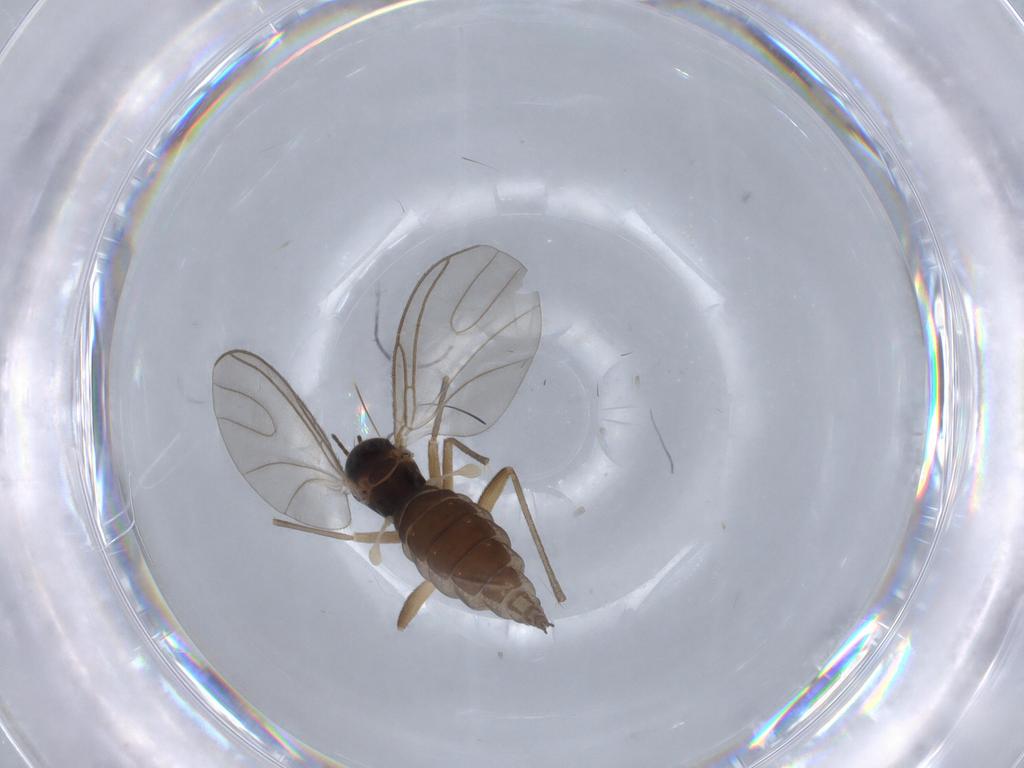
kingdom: Animalia
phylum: Arthropoda
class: Insecta
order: Diptera
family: Sciaridae
